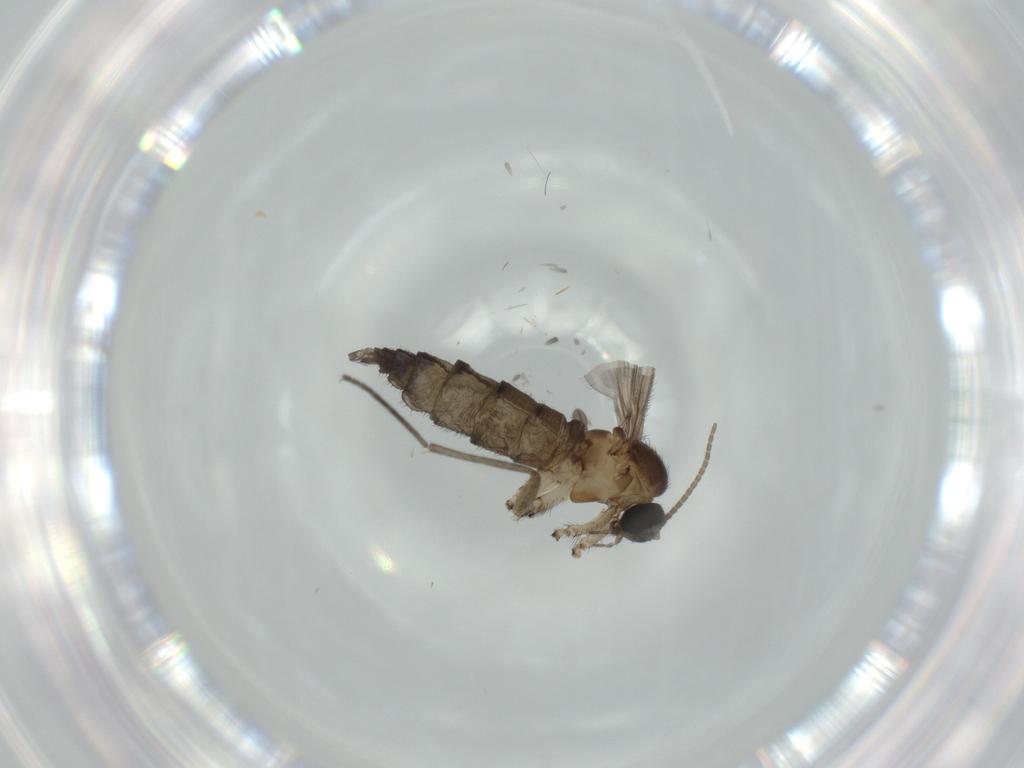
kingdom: Animalia
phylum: Arthropoda
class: Insecta
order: Diptera
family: Sciaridae
